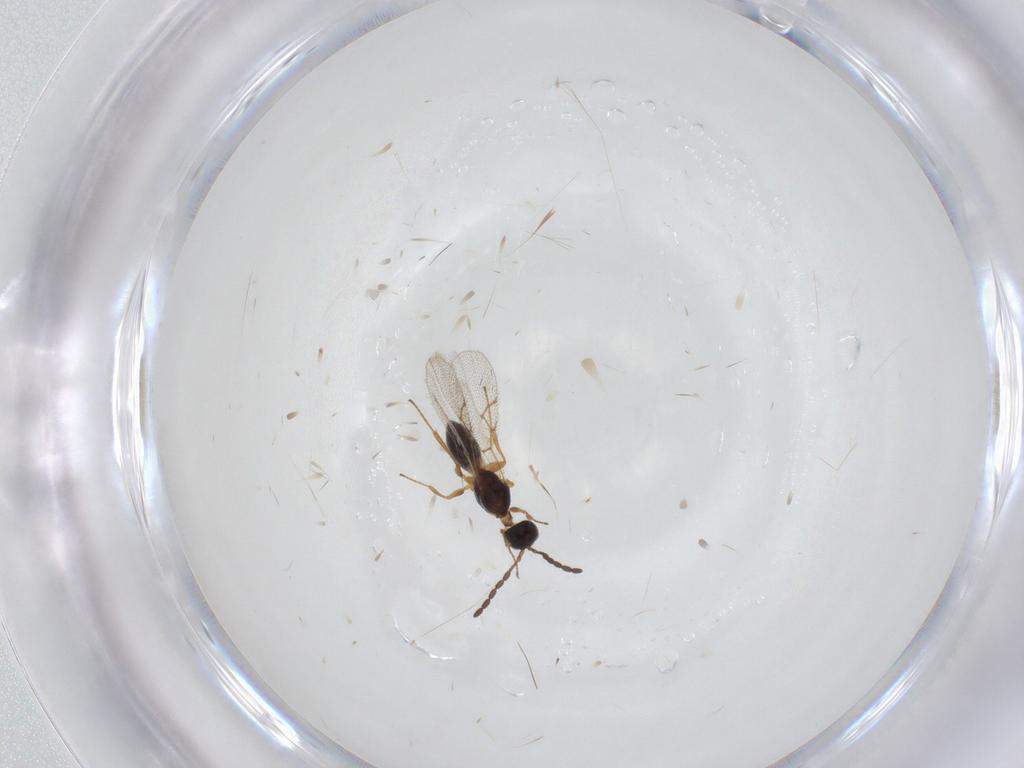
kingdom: Animalia
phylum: Arthropoda
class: Insecta
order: Hymenoptera
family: Figitidae
